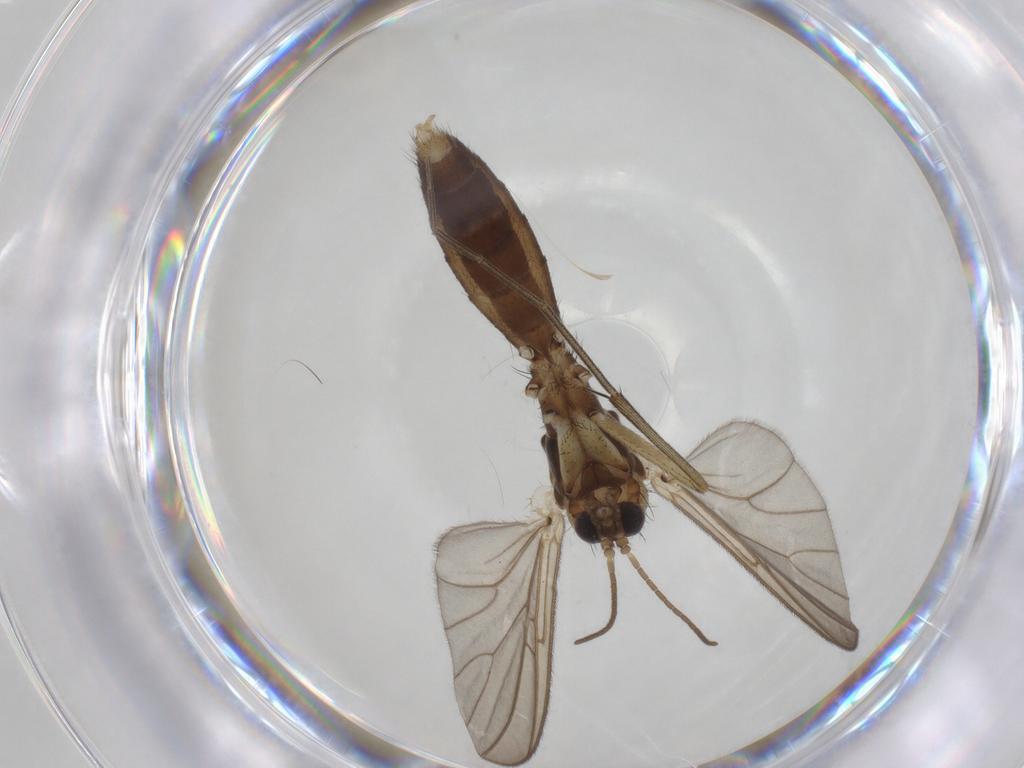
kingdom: Animalia
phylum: Arthropoda
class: Insecta
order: Diptera
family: Mycetophilidae
